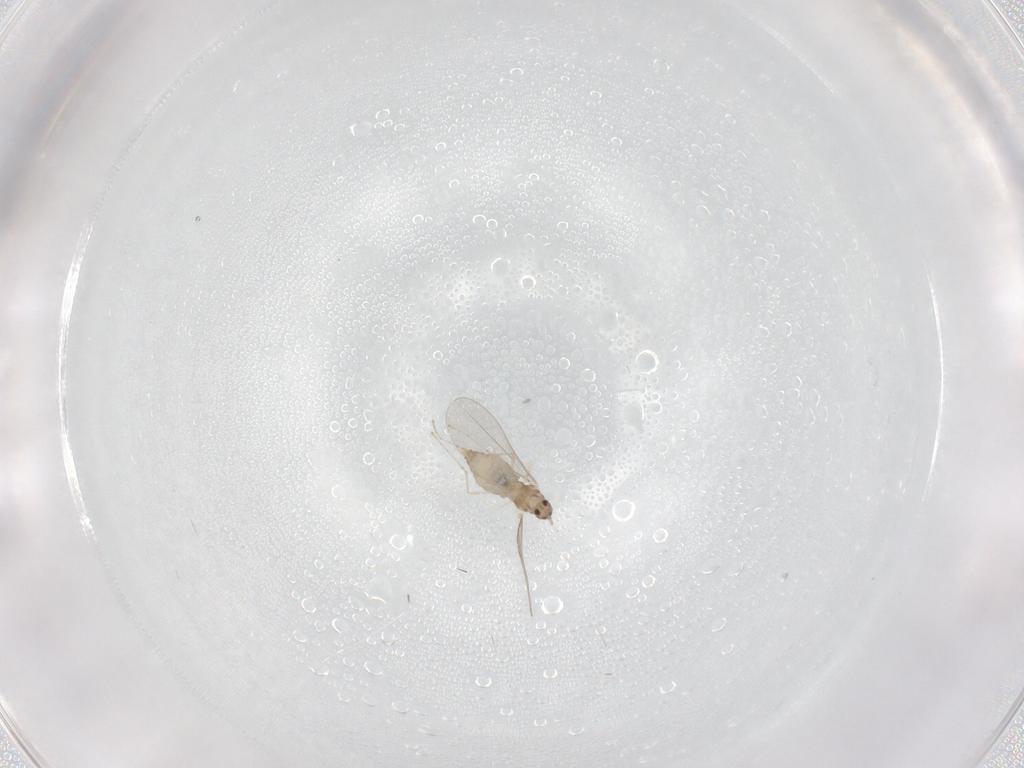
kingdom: Animalia
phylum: Arthropoda
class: Insecta
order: Diptera
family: Cecidomyiidae
